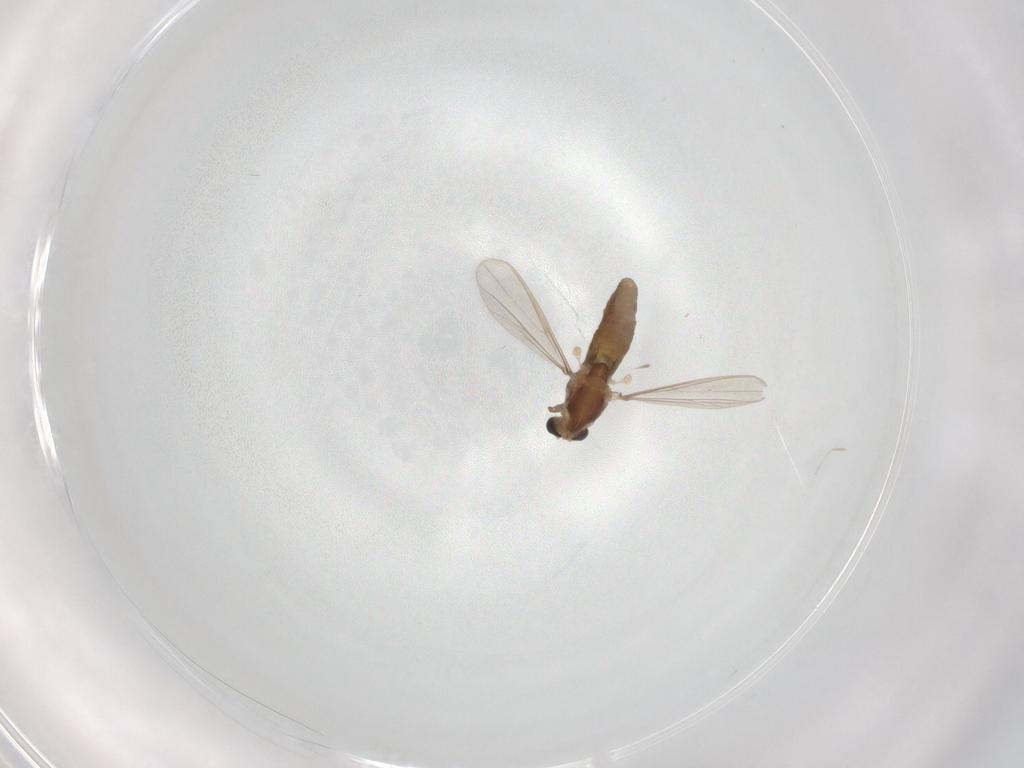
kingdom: Animalia
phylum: Arthropoda
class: Insecta
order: Diptera
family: Chironomidae
